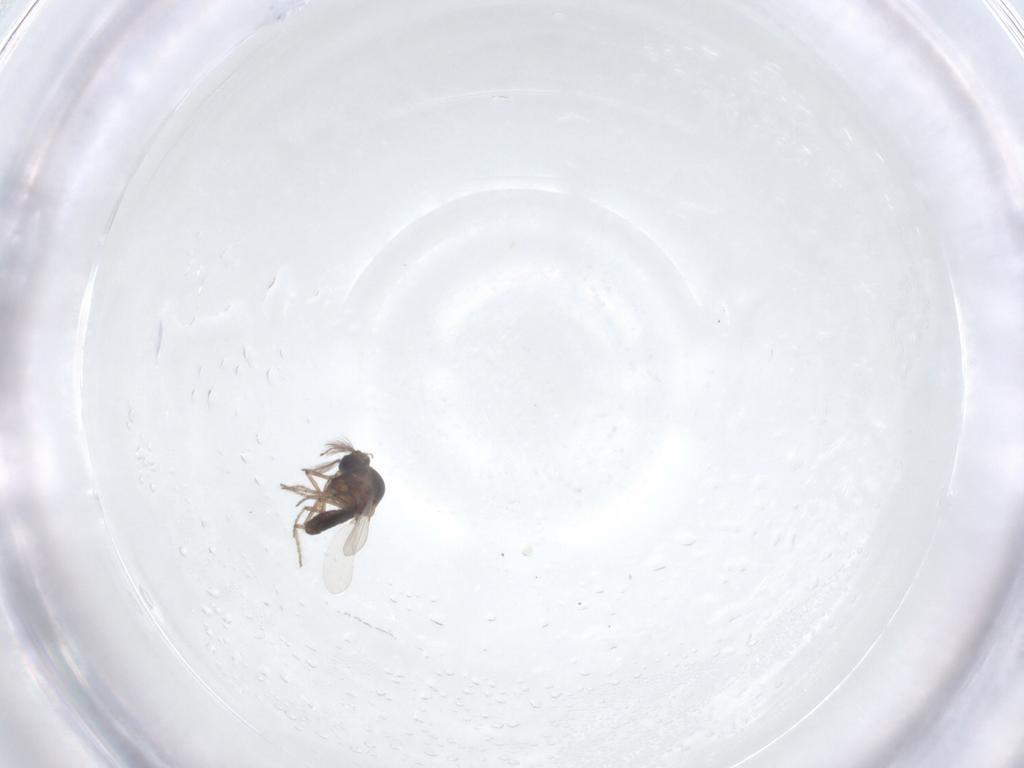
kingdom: Animalia
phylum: Arthropoda
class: Insecta
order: Diptera
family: Ceratopogonidae
